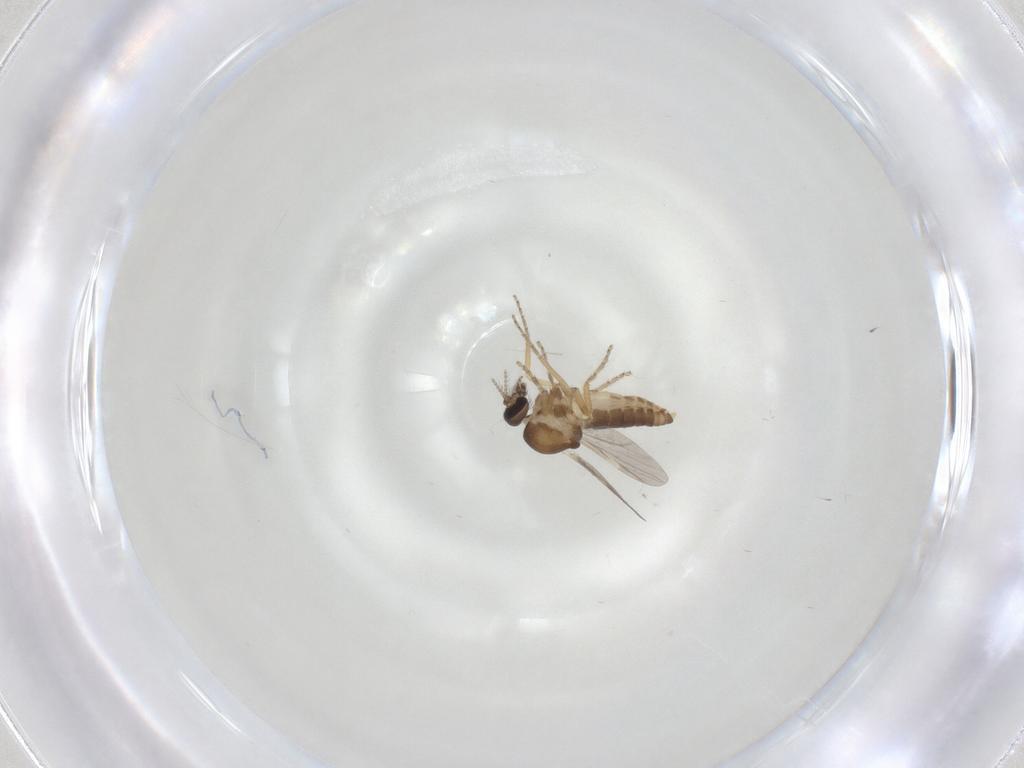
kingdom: Animalia
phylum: Arthropoda
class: Insecta
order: Diptera
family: Ceratopogonidae
